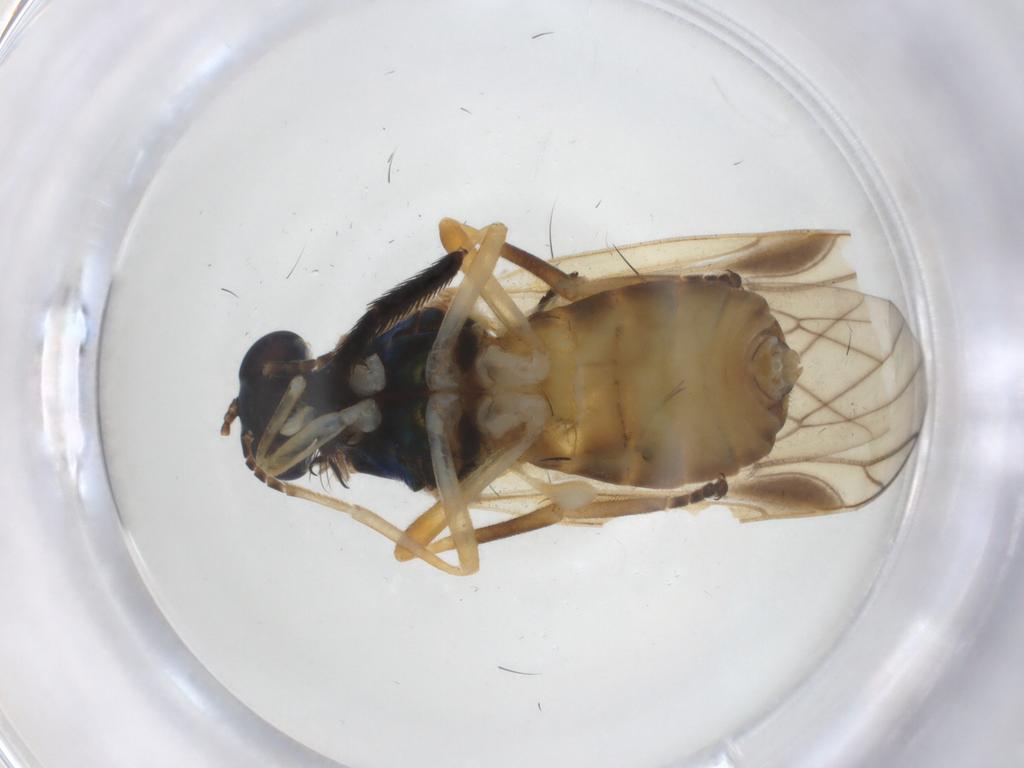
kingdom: Animalia
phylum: Arthropoda
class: Insecta
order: Diptera
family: Stratiomyidae
